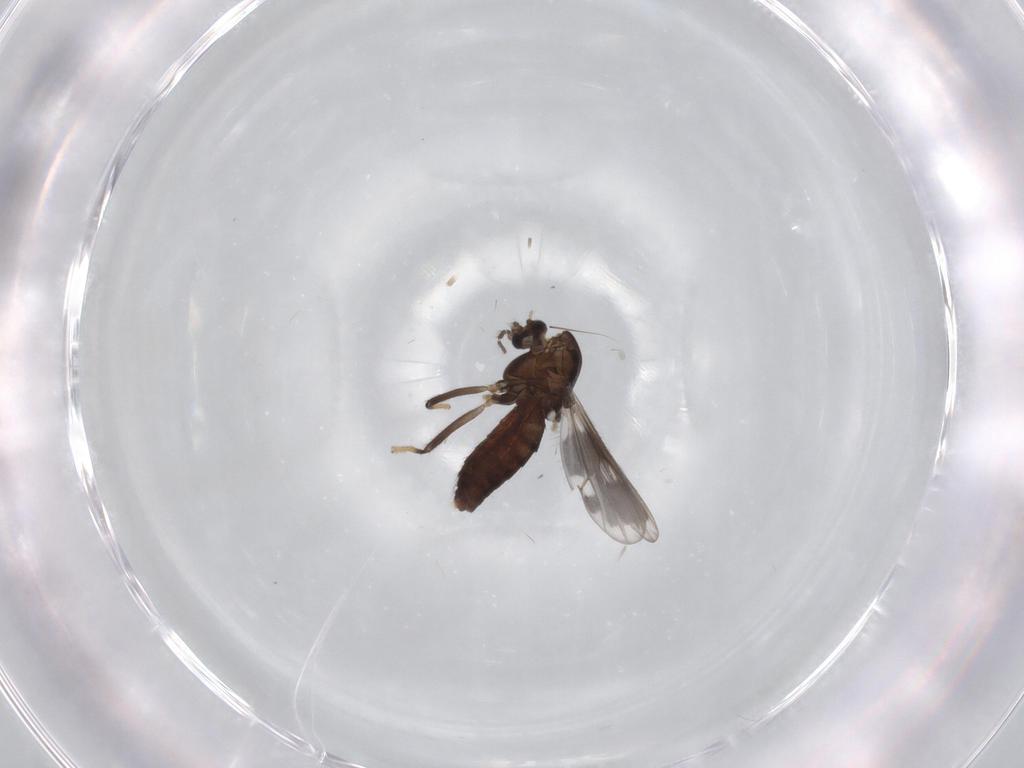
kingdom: Animalia
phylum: Arthropoda
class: Insecta
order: Diptera
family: Chironomidae
